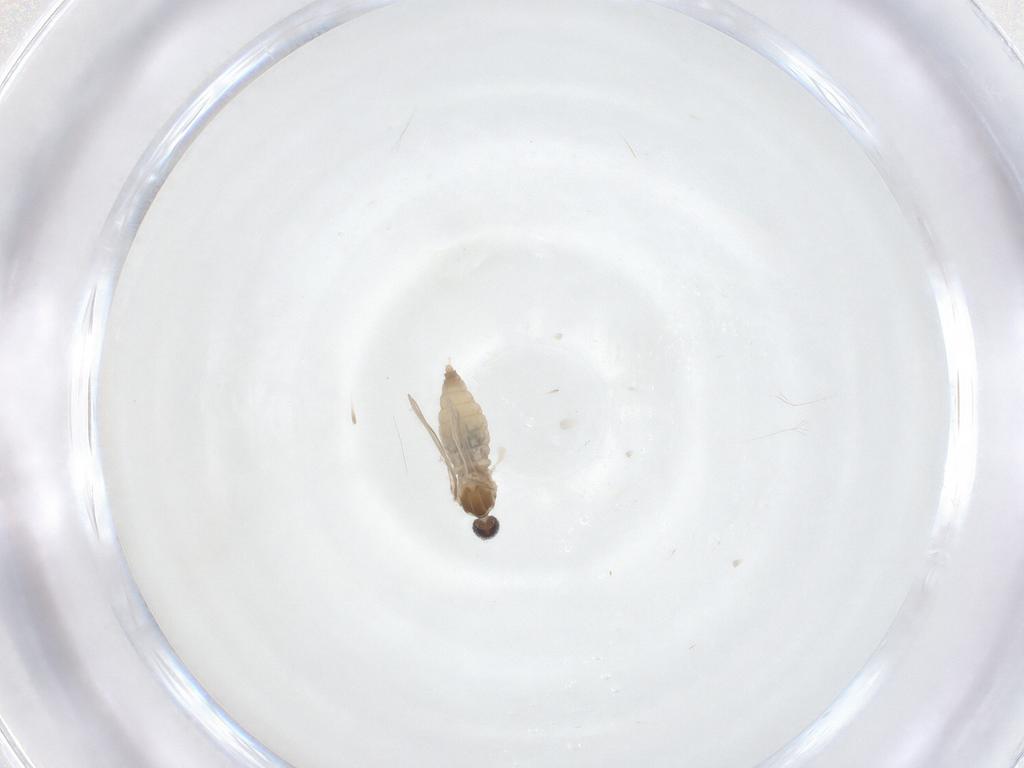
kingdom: Animalia
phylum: Arthropoda
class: Insecta
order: Diptera
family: Cecidomyiidae
